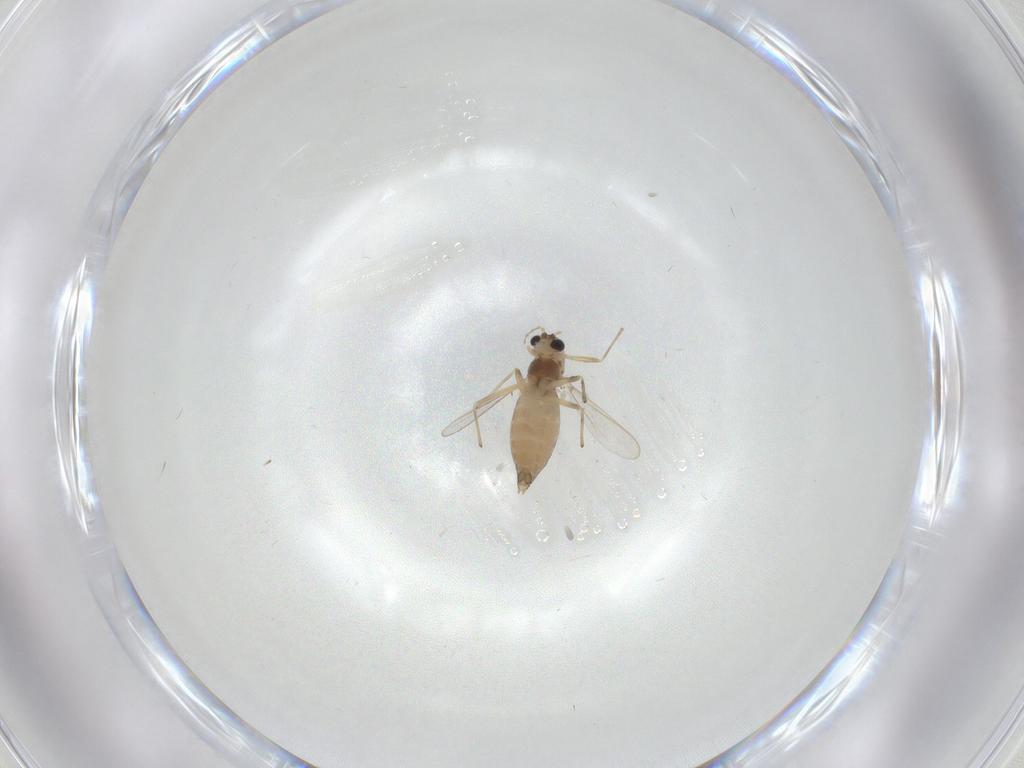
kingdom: Animalia
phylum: Arthropoda
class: Insecta
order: Diptera
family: Chironomidae
